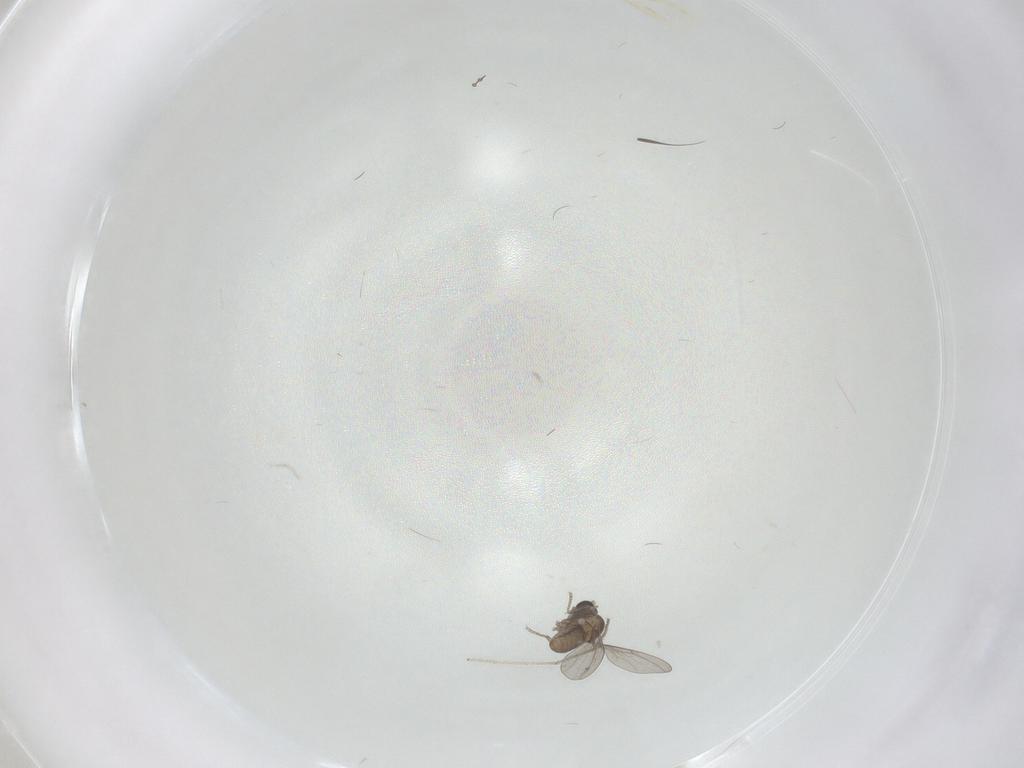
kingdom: Animalia
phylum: Arthropoda
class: Insecta
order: Diptera
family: Cecidomyiidae
